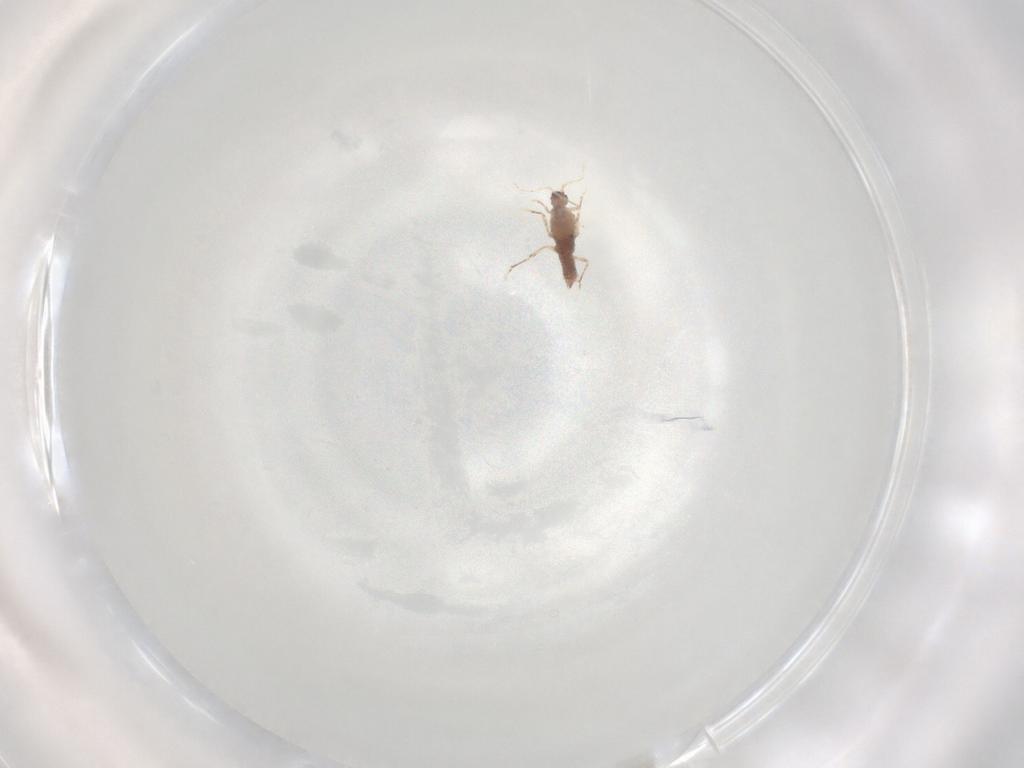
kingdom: Animalia
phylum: Arthropoda
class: Insecta
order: Hemiptera
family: Pseudococcidae
